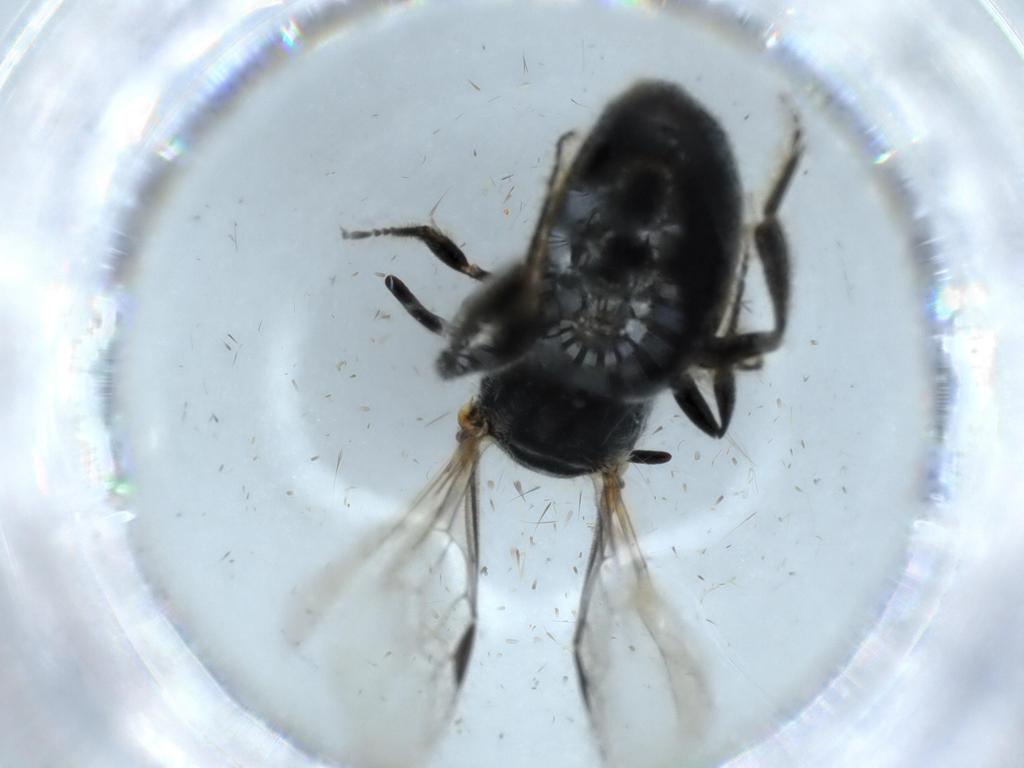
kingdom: Animalia
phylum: Arthropoda
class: Insecta
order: Hymenoptera
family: Halictidae
